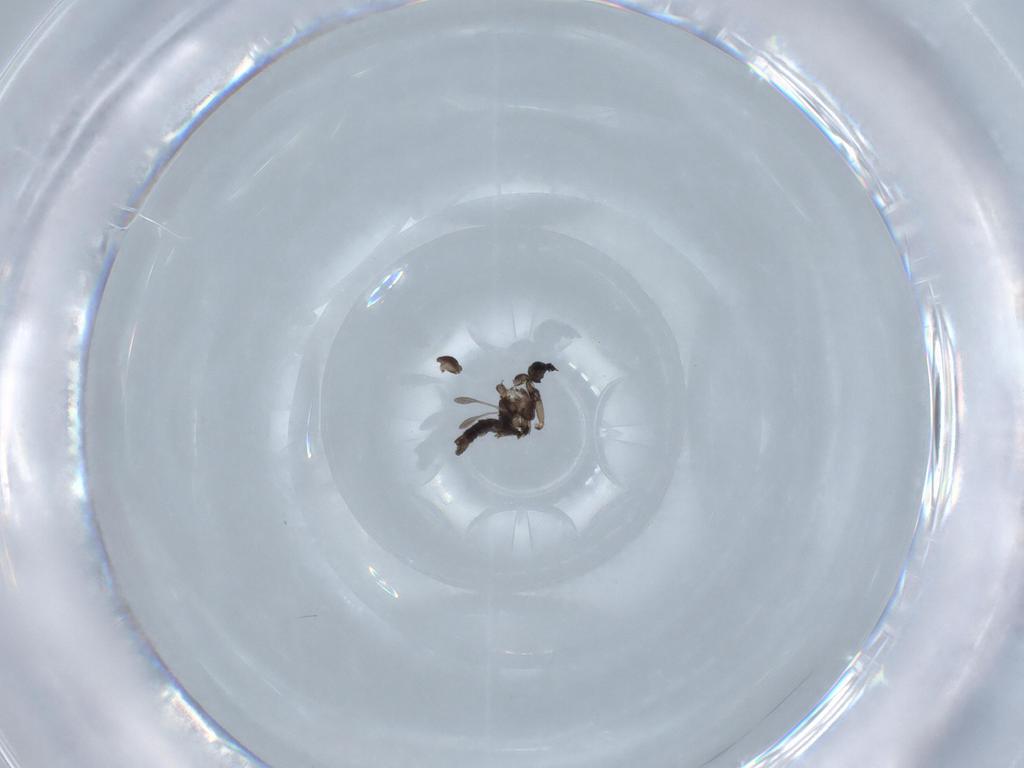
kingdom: Animalia
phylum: Arthropoda
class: Insecta
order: Diptera
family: Sciaridae
